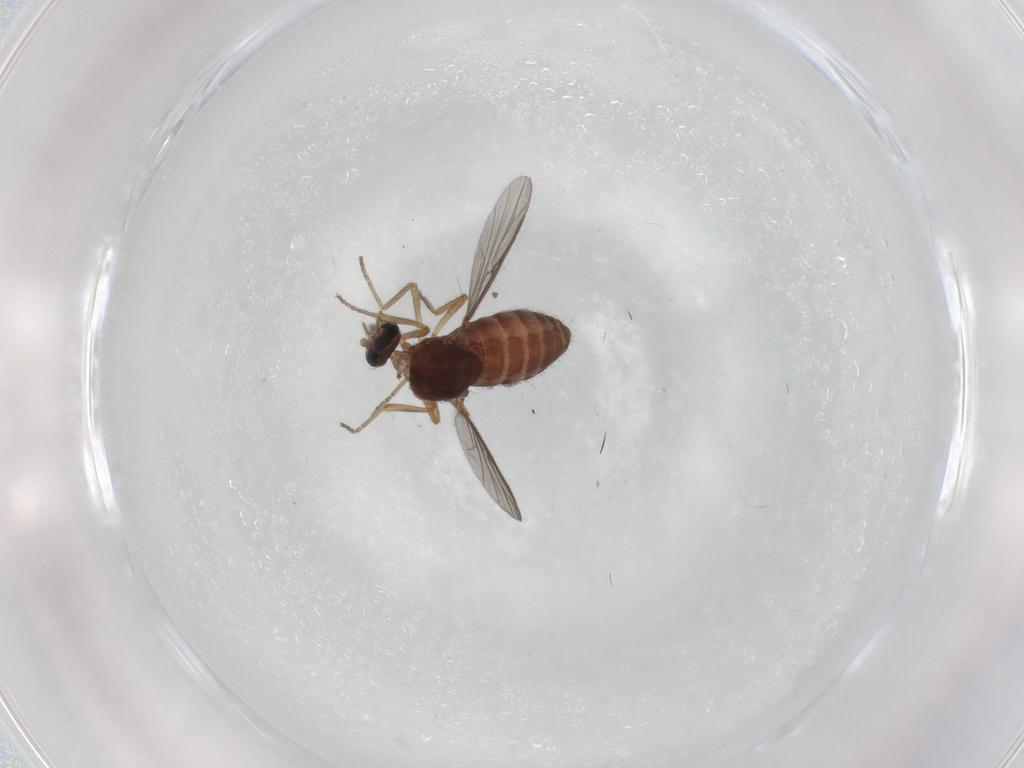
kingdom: Animalia
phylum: Arthropoda
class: Insecta
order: Diptera
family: Ceratopogonidae
